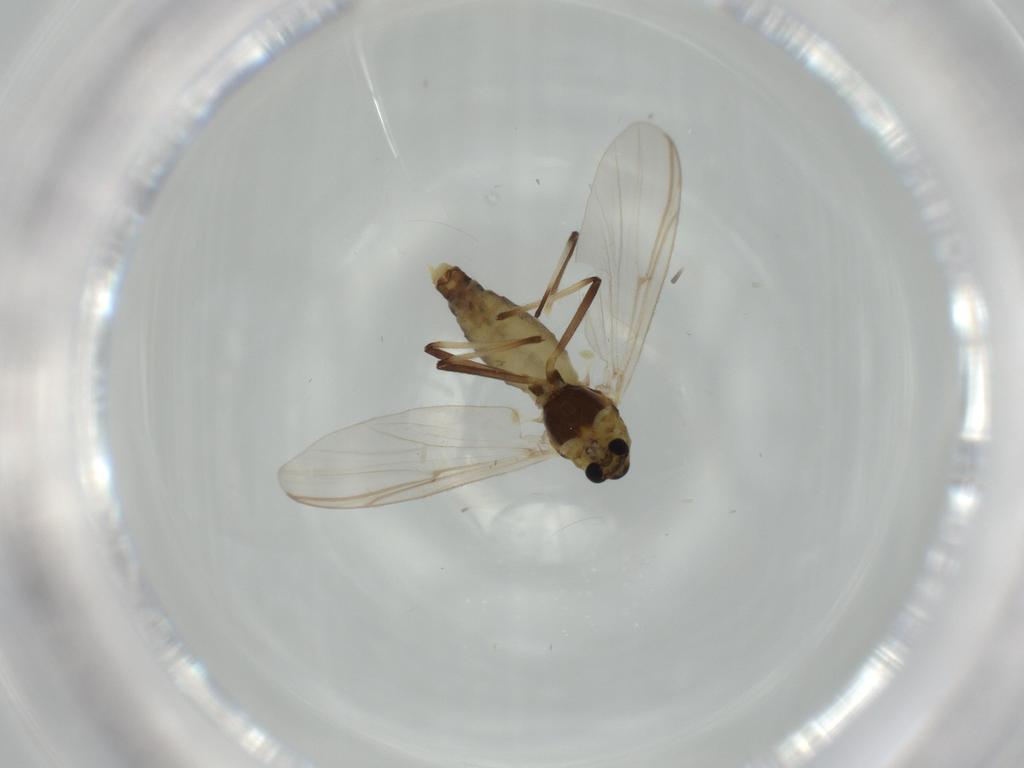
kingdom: Animalia
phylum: Arthropoda
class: Insecta
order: Diptera
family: Chironomidae
